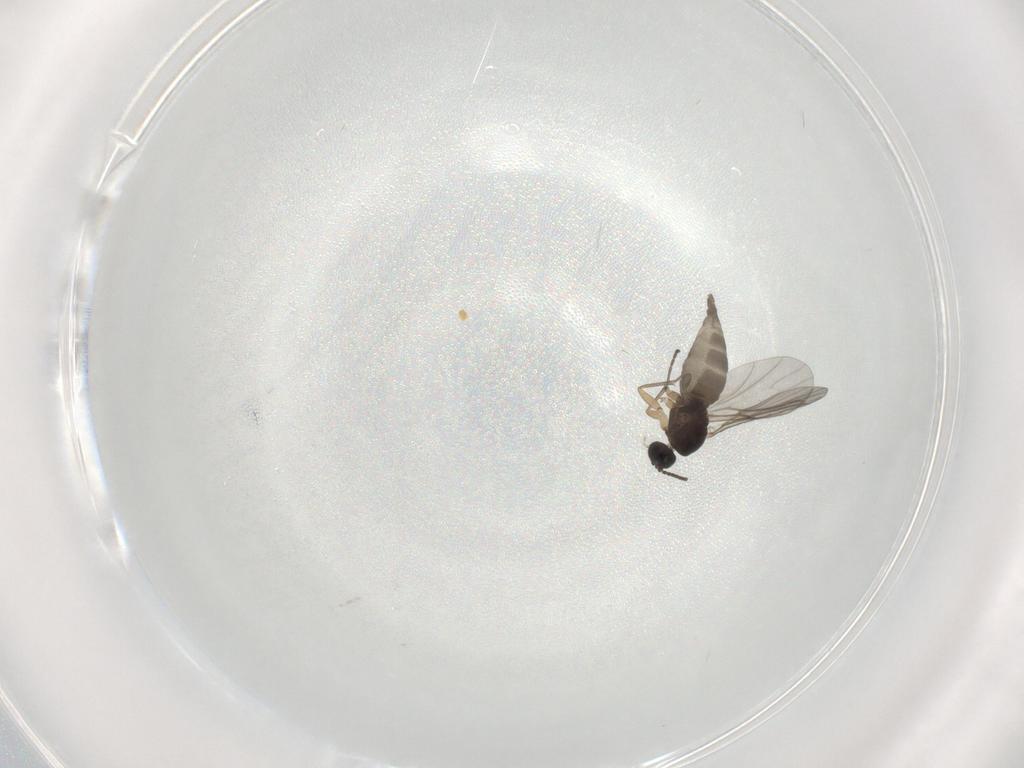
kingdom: Animalia
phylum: Arthropoda
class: Insecta
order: Diptera
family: Sciaridae
